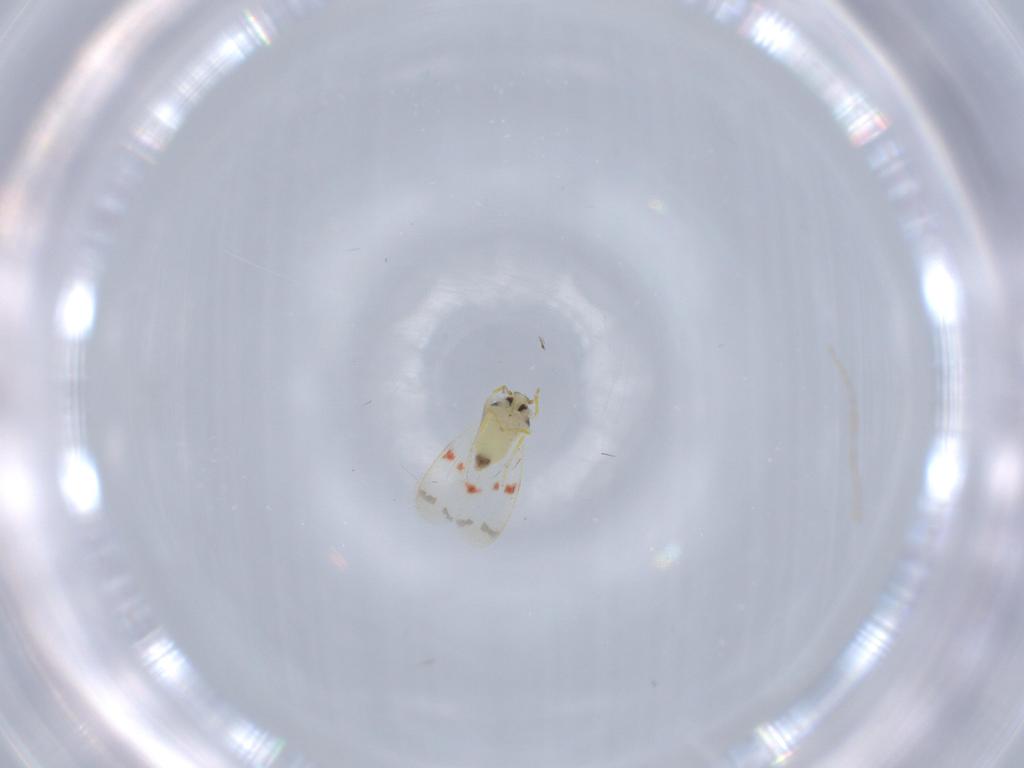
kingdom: Animalia
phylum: Arthropoda
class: Insecta
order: Hemiptera
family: Aleyrodidae
